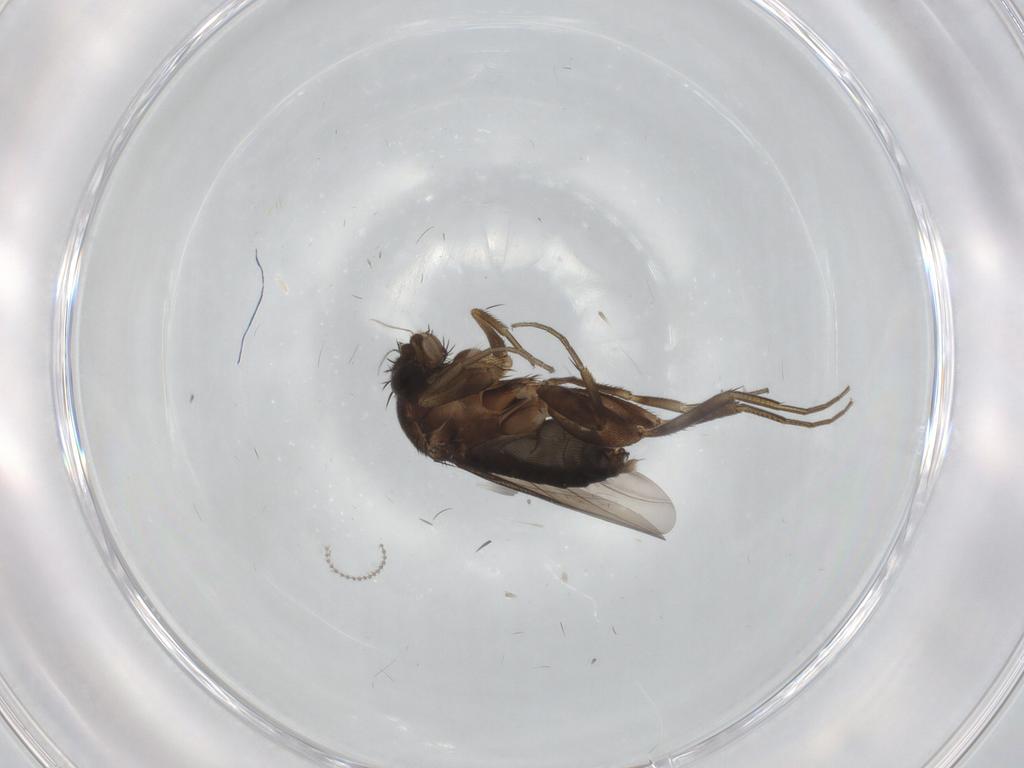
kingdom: Animalia
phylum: Arthropoda
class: Insecta
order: Diptera
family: Phoridae
